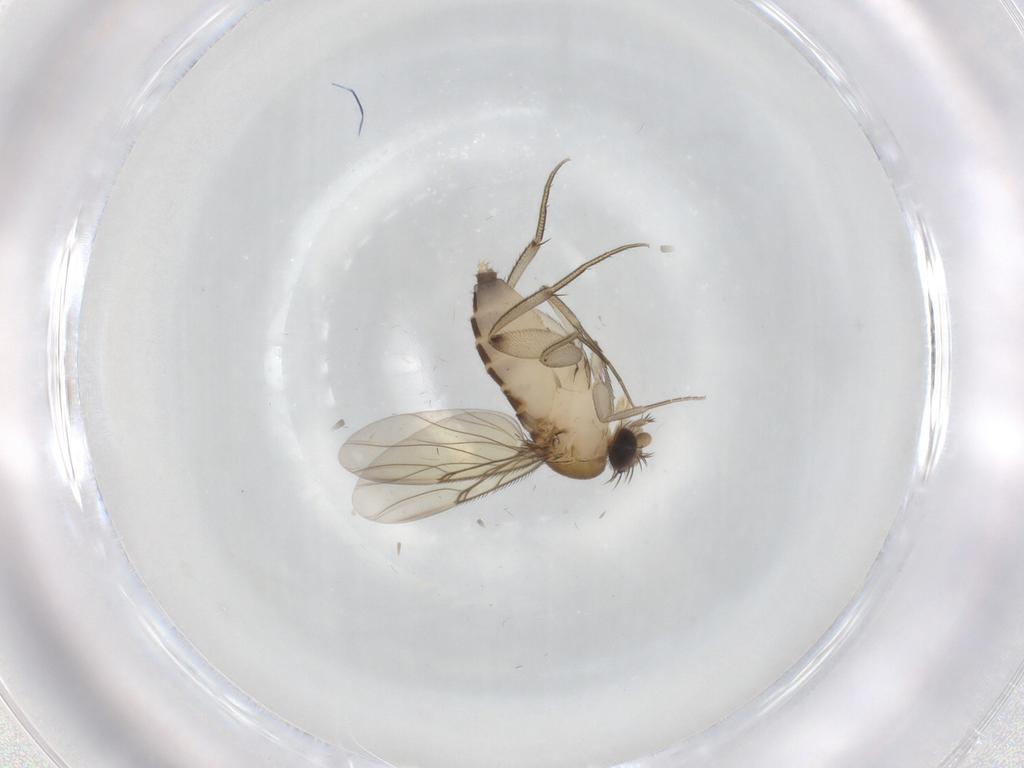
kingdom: Animalia
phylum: Arthropoda
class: Insecta
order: Diptera
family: Phoridae
